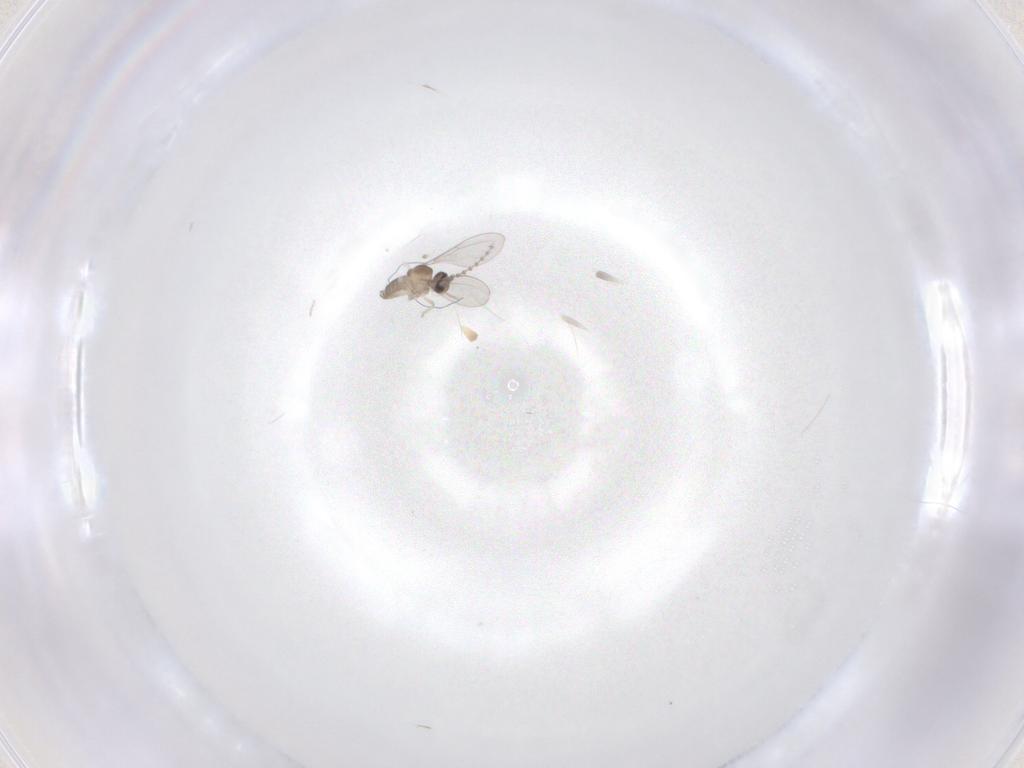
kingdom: Animalia
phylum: Arthropoda
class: Insecta
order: Diptera
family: Cecidomyiidae
